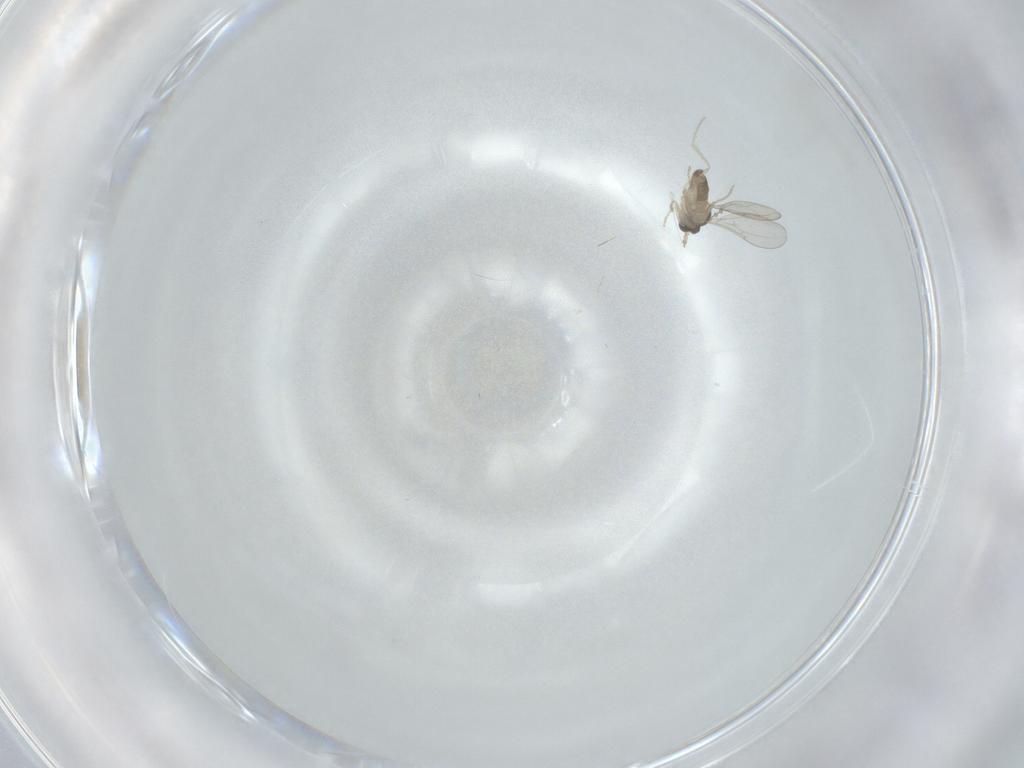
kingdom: Animalia
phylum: Arthropoda
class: Insecta
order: Diptera
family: Cecidomyiidae
